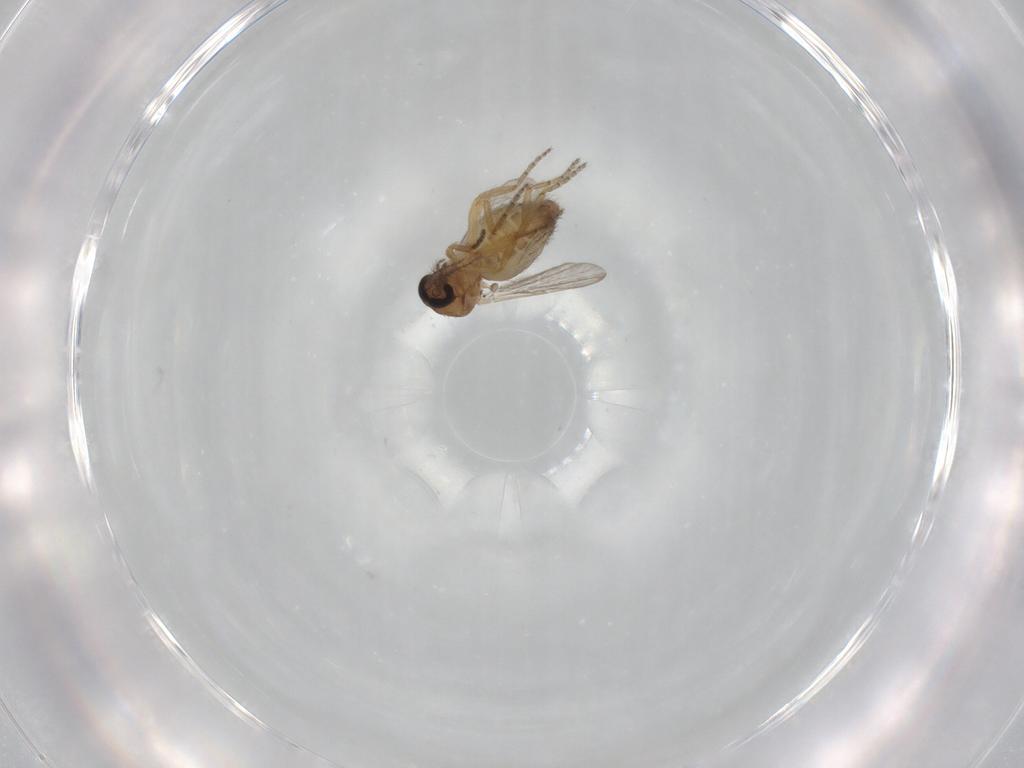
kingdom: Animalia
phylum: Arthropoda
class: Insecta
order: Diptera
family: Ceratopogonidae
